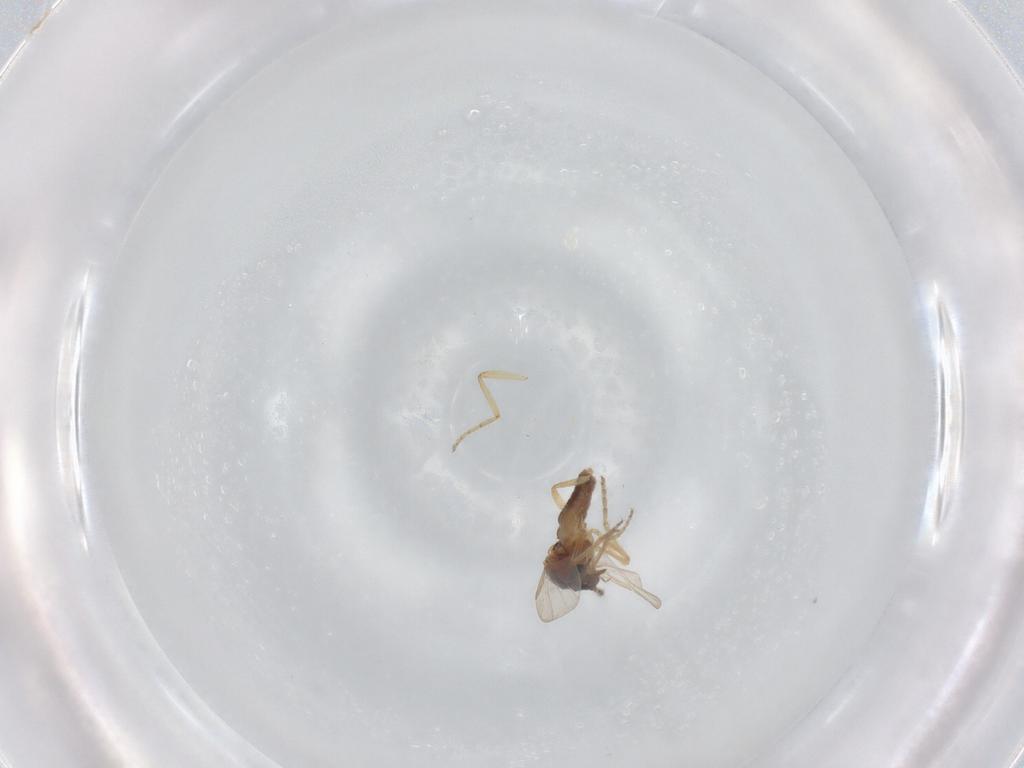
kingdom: Animalia
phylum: Arthropoda
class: Insecta
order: Diptera
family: Ceratopogonidae
